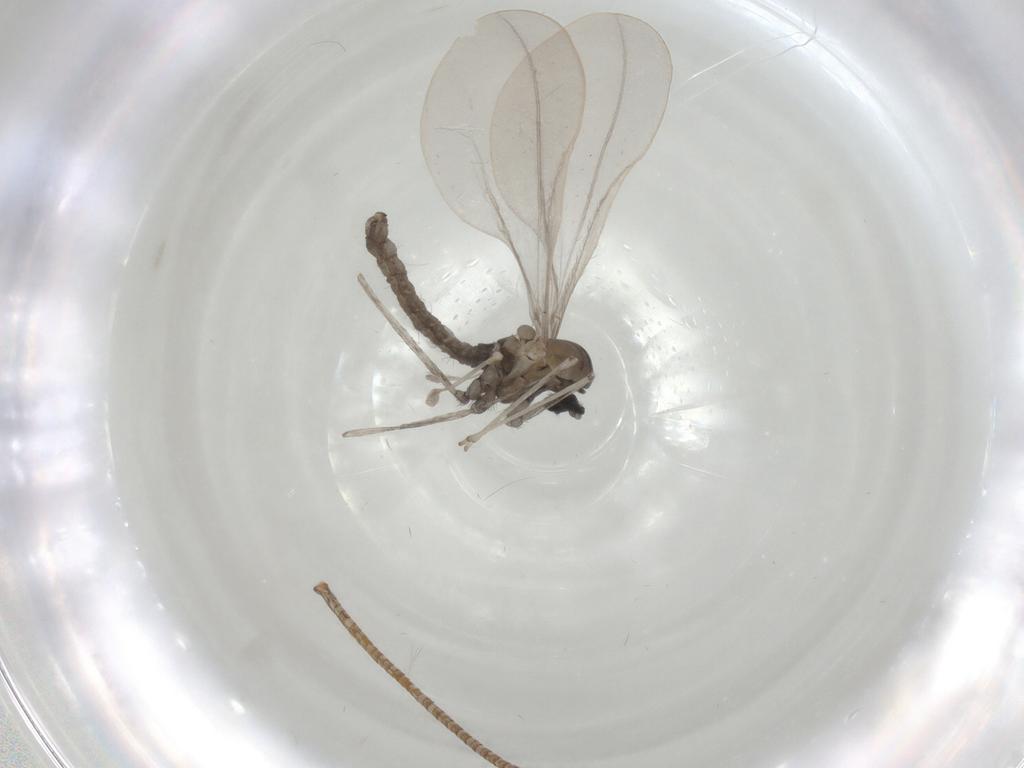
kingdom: Animalia
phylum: Arthropoda
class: Insecta
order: Diptera
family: Cecidomyiidae
